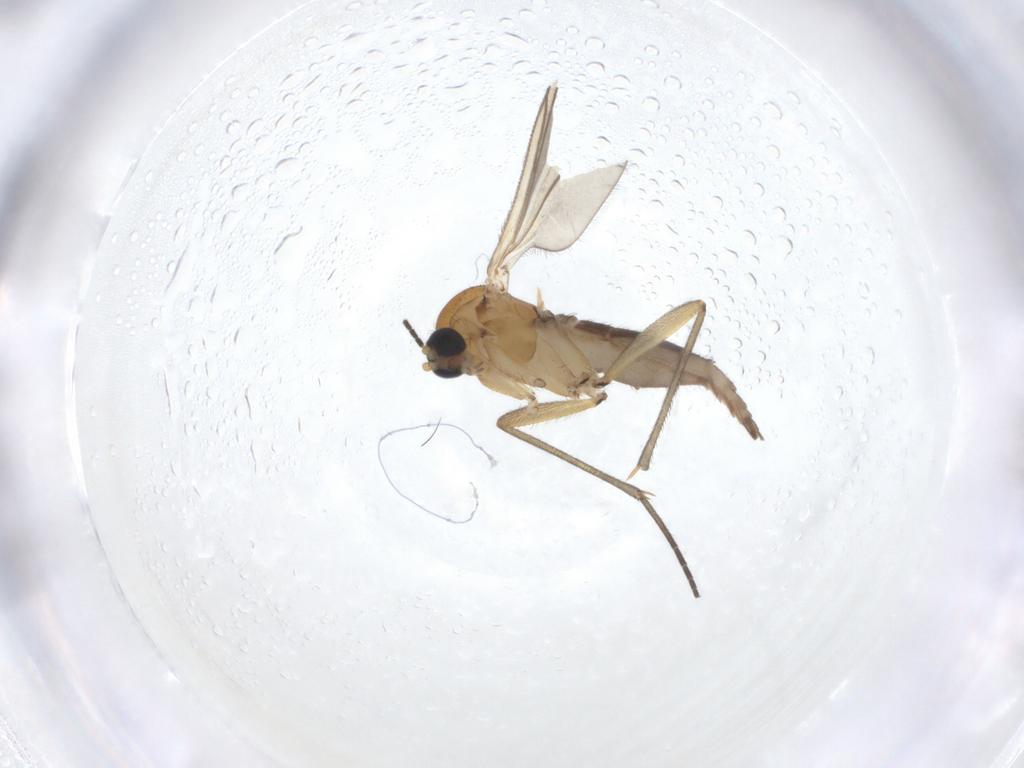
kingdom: Animalia
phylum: Arthropoda
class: Insecta
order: Diptera
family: Sciaridae
